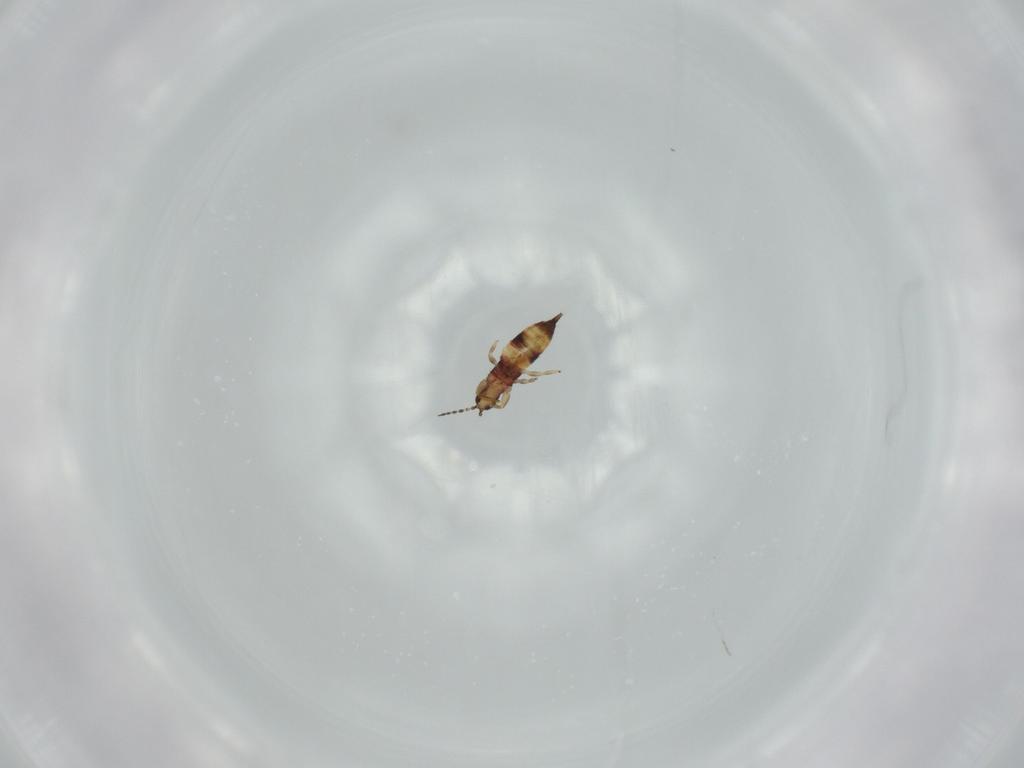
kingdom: Animalia
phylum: Arthropoda
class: Insecta
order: Thysanoptera
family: Phlaeothripidae
